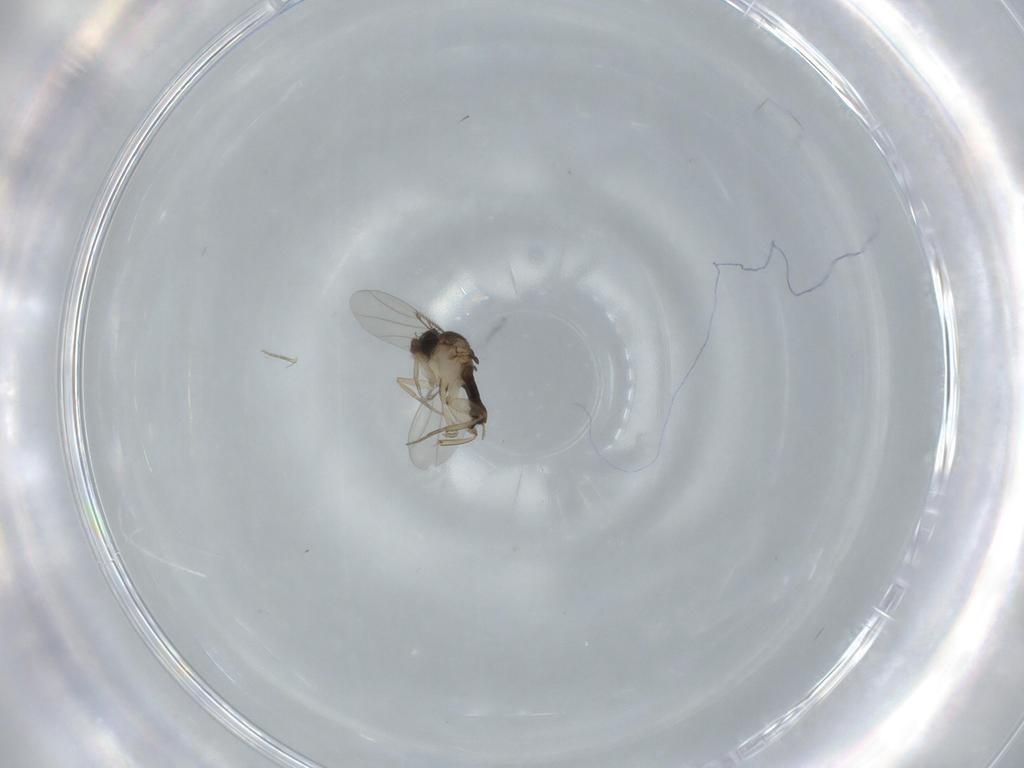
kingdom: Animalia
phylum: Arthropoda
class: Insecta
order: Diptera
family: Phoridae
